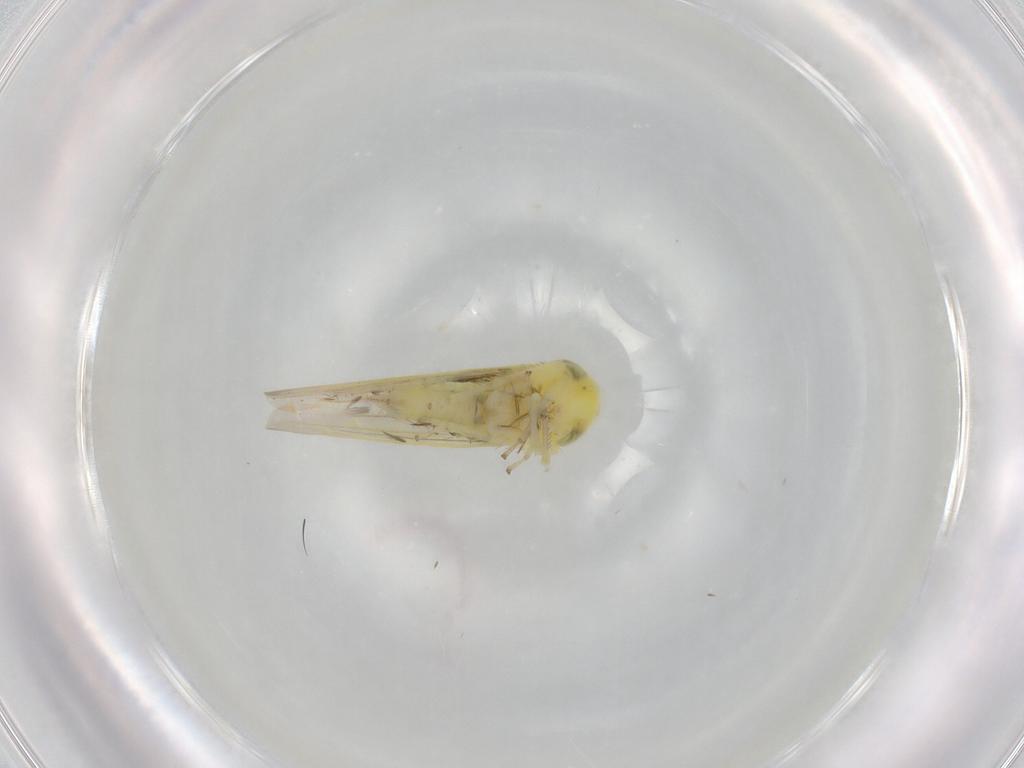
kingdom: Animalia
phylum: Arthropoda
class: Insecta
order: Hemiptera
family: Cicadellidae
